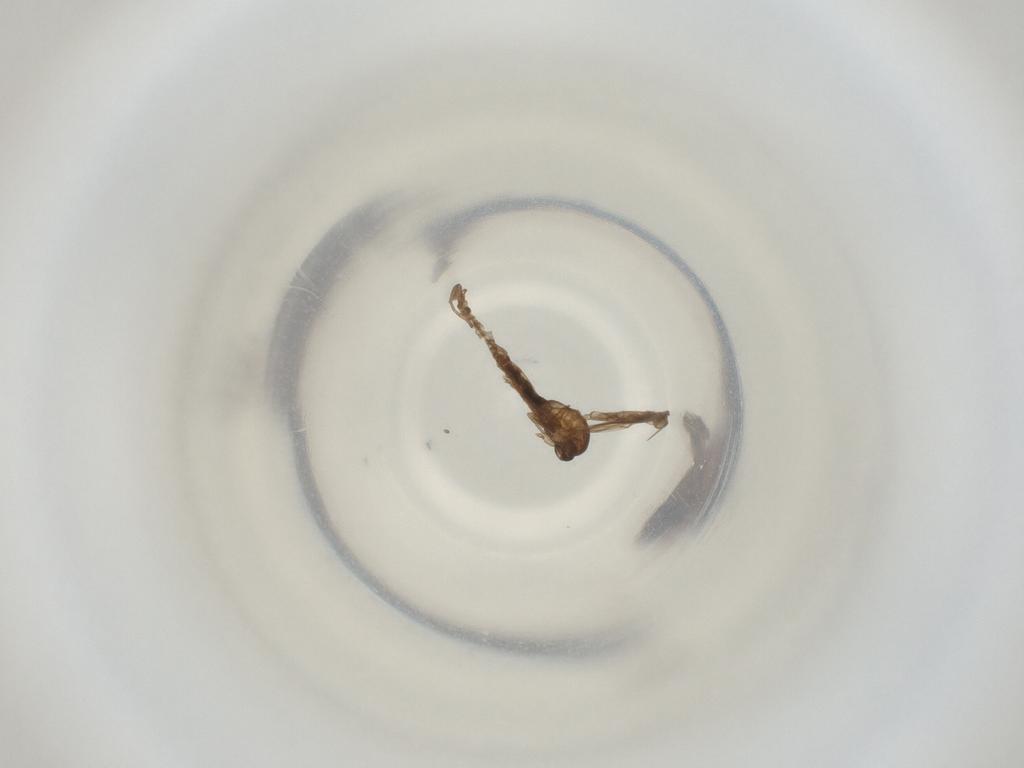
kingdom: Animalia
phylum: Arthropoda
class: Insecta
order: Diptera
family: Cecidomyiidae
